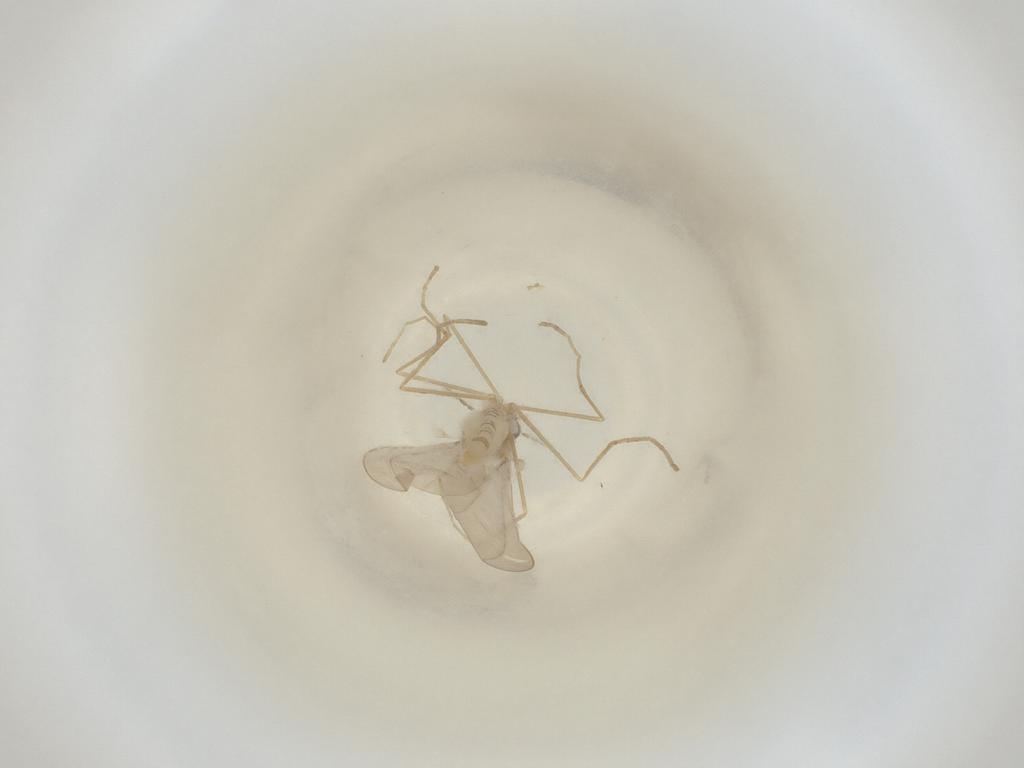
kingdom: Animalia
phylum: Arthropoda
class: Insecta
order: Diptera
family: Cecidomyiidae
